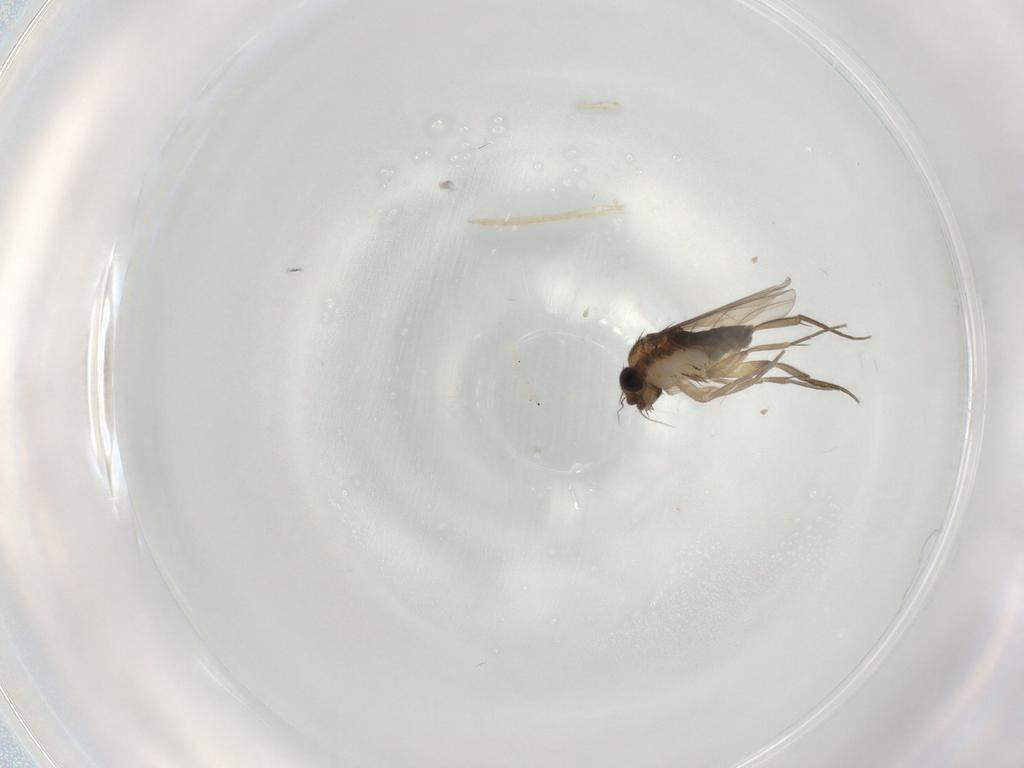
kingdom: Animalia
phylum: Arthropoda
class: Insecta
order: Diptera
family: Phoridae
